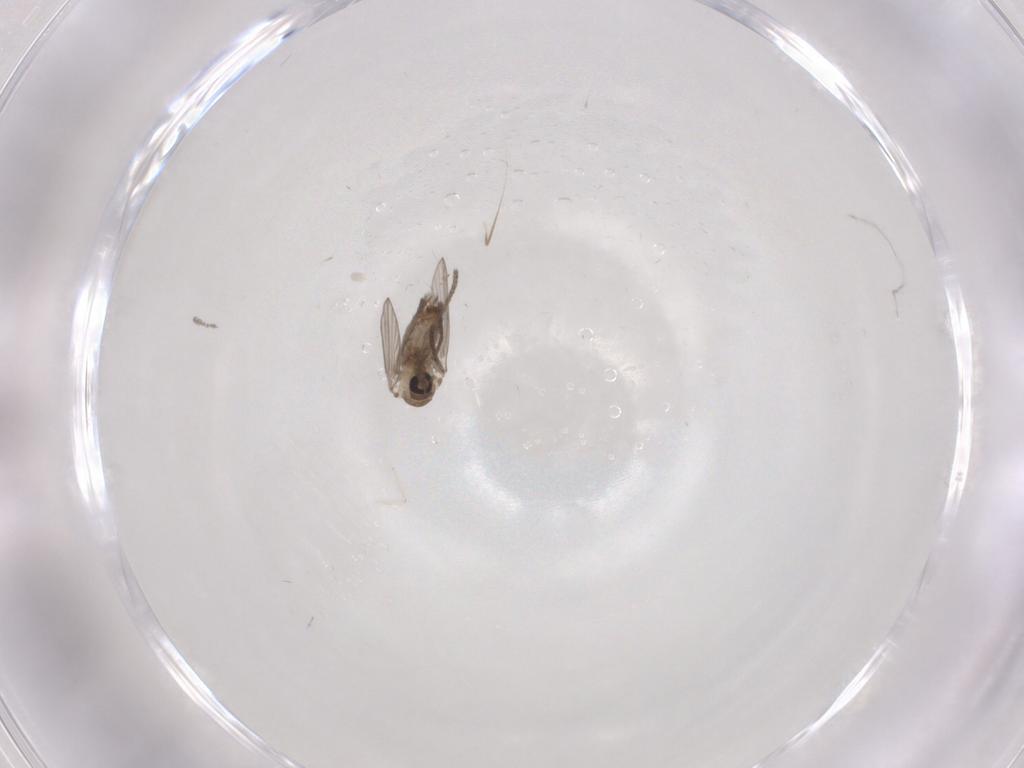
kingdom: Animalia
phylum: Arthropoda
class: Insecta
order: Diptera
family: Psychodidae
